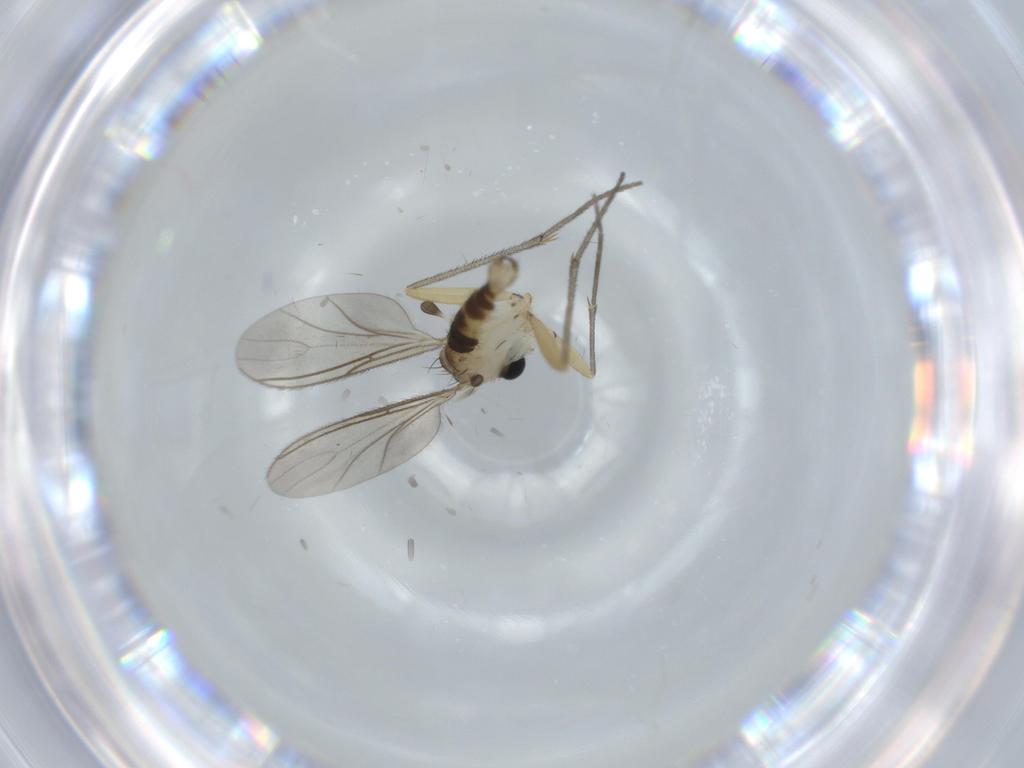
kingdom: Animalia
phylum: Arthropoda
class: Insecta
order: Diptera
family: Sciaridae
